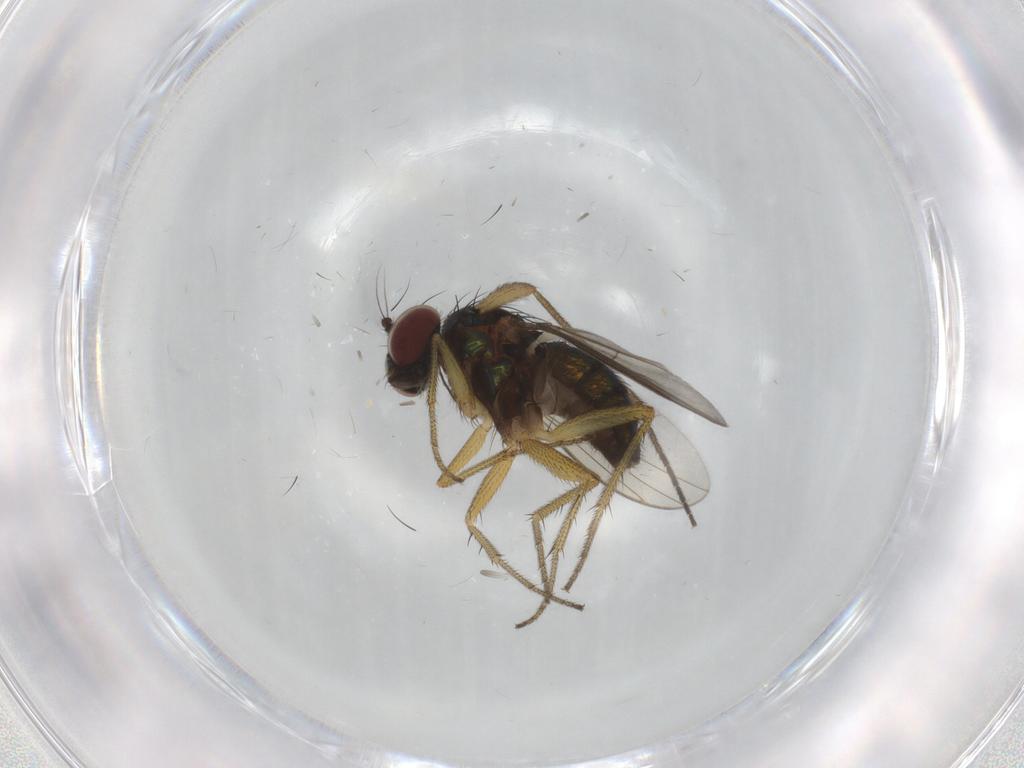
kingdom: Animalia
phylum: Arthropoda
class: Insecta
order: Diptera
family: Dolichopodidae
